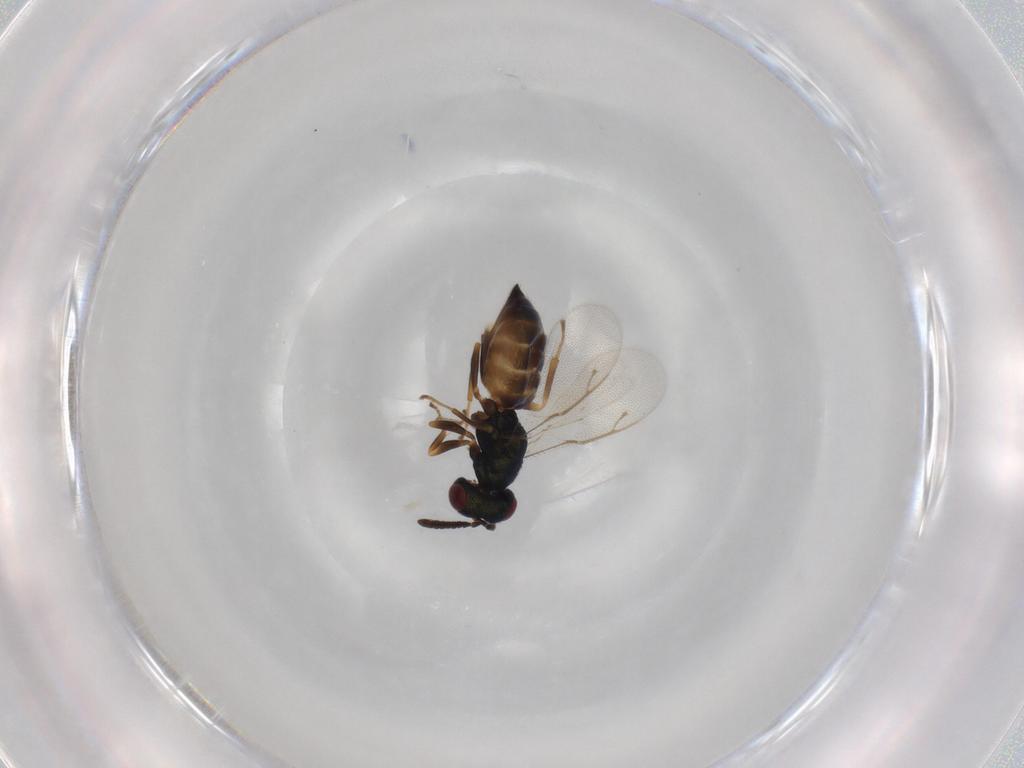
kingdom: Animalia
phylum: Arthropoda
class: Insecta
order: Hymenoptera
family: Pteromalidae
